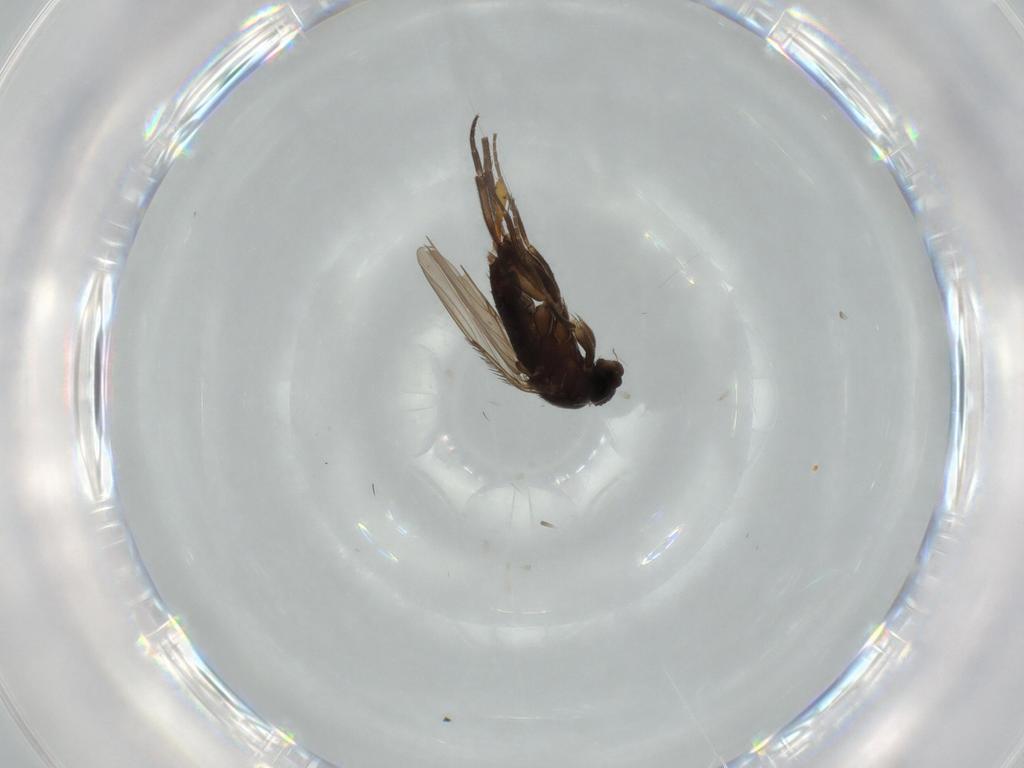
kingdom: Animalia
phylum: Arthropoda
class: Insecta
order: Diptera
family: Phoridae
